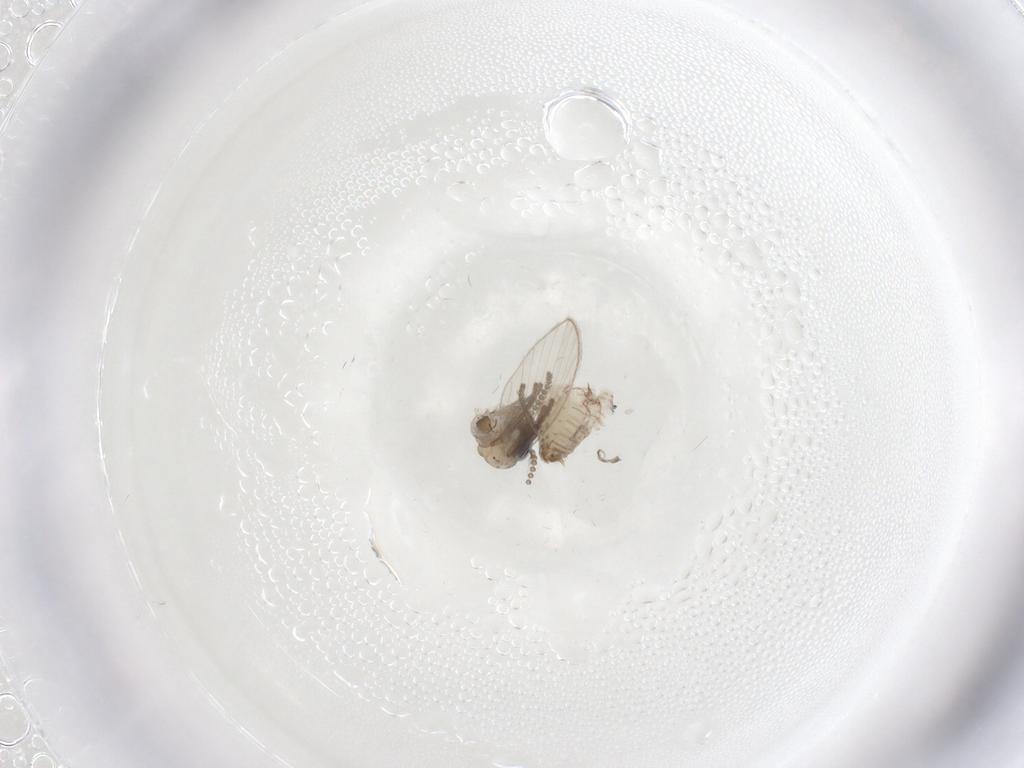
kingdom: Animalia
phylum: Arthropoda
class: Insecta
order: Diptera
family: Psychodidae
